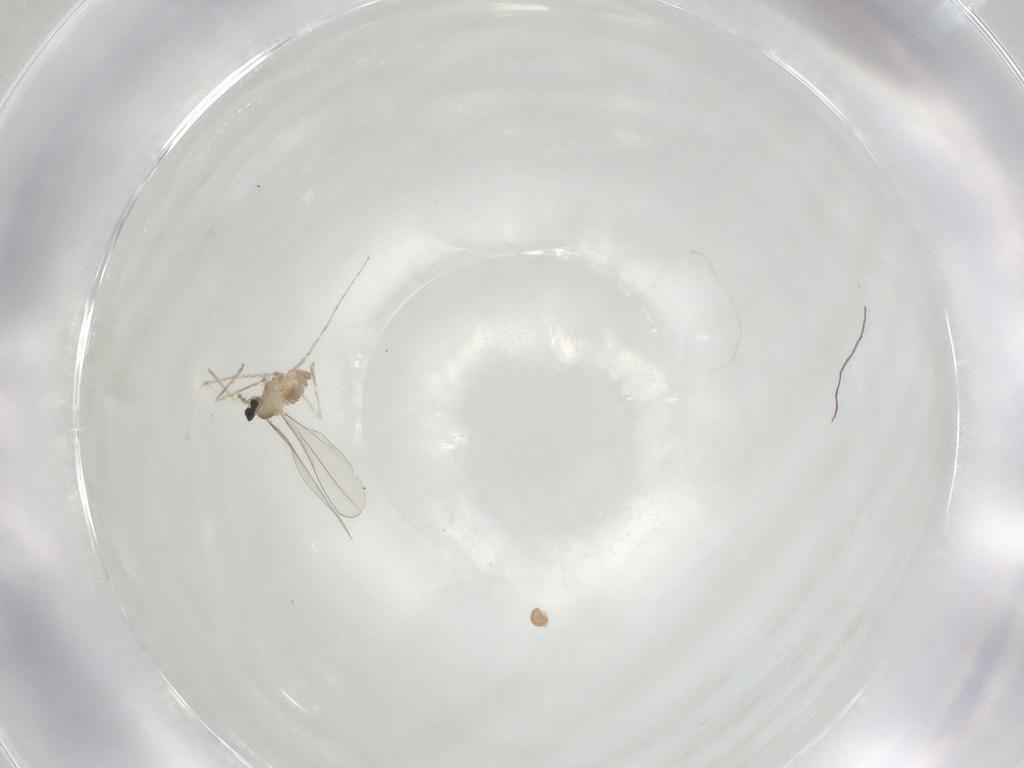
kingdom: Animalia
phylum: Arthropoda
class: Insecta
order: Diptera
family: Cecidomyiidae
